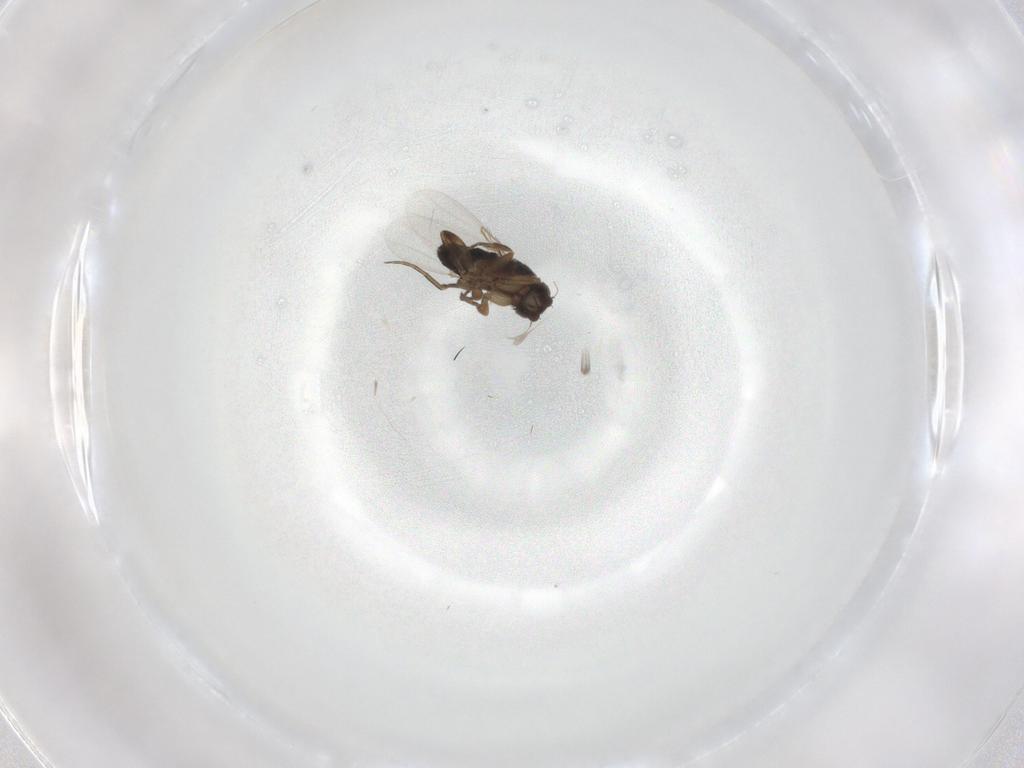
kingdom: Animalia
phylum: Arthropoda
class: Insecta
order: Diptera
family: Phoridae
